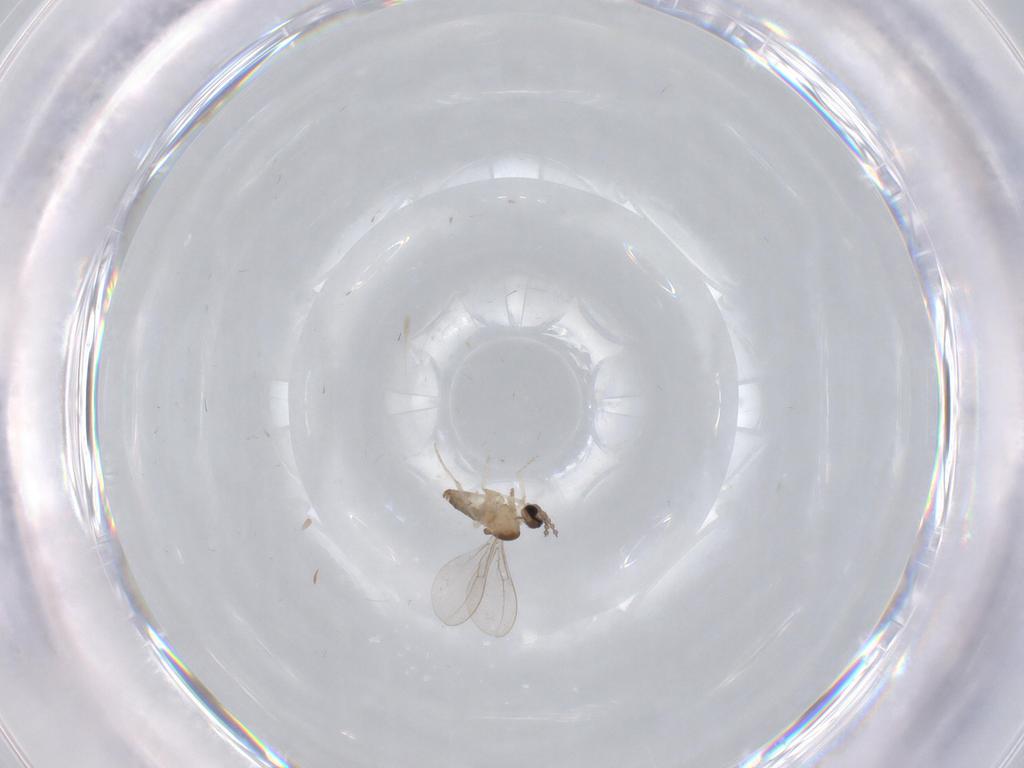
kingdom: Animalia
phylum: Arthropoda
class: Insecta
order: Diptera
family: Cecidomyiidae
